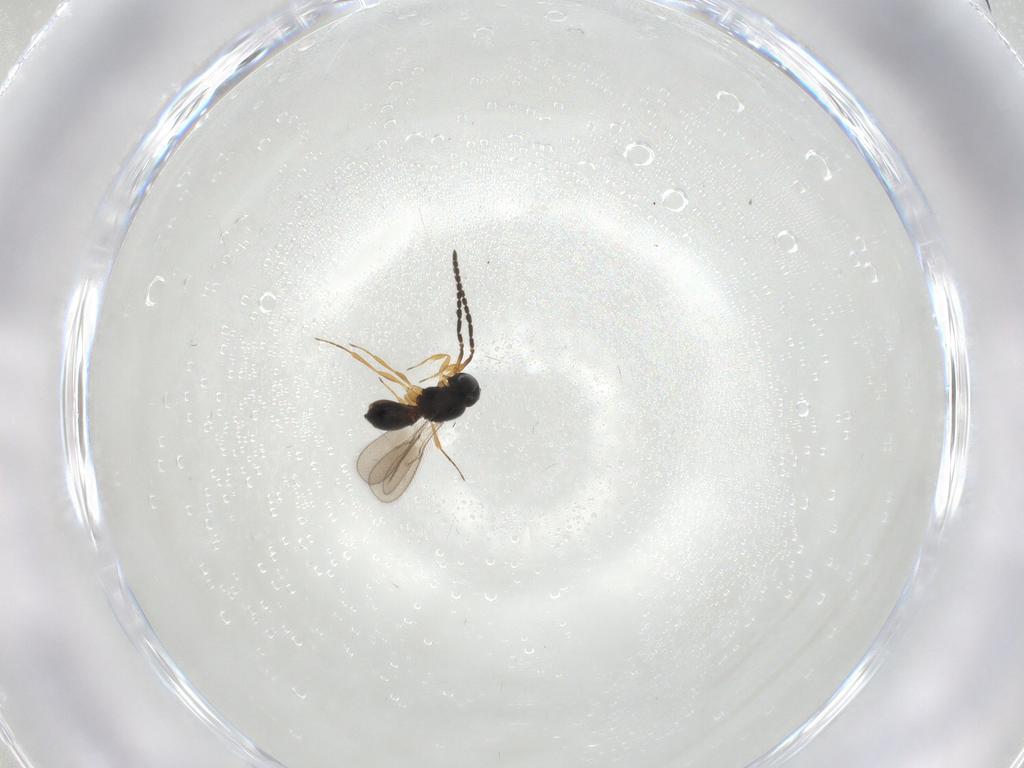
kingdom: Animalia
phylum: Arthropoda
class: Insecta
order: Hymenoptera
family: Scelionidae
